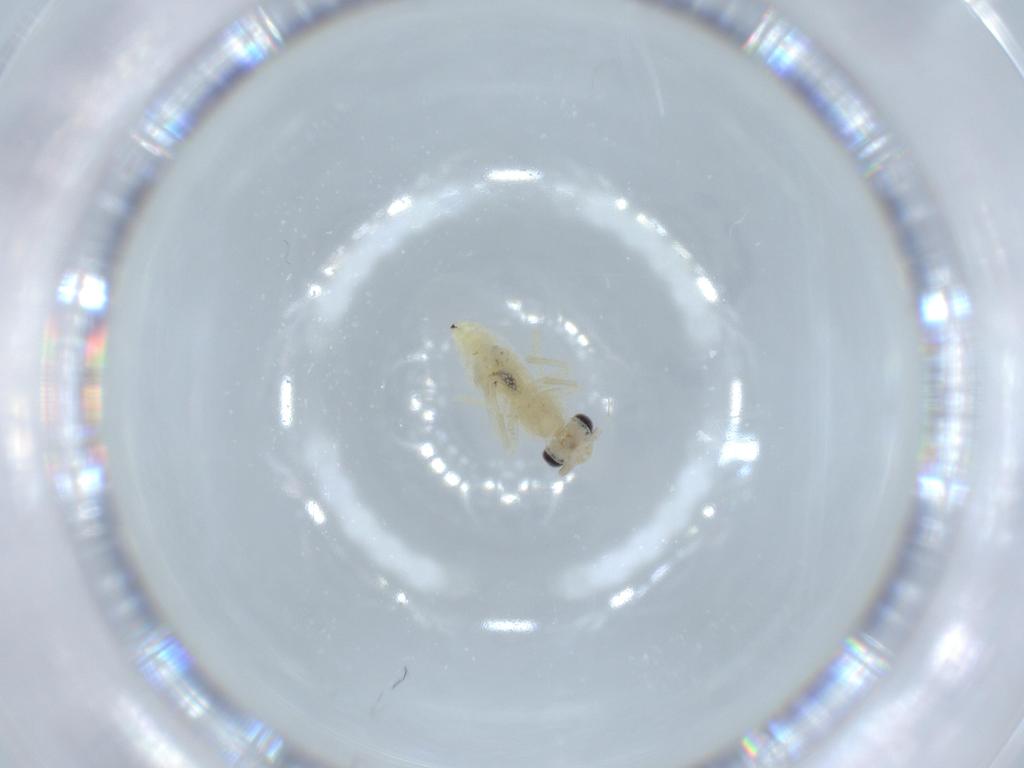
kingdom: Animalia
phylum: Arthropoda
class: Insecta
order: Psocodea
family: Caeciliusidae
